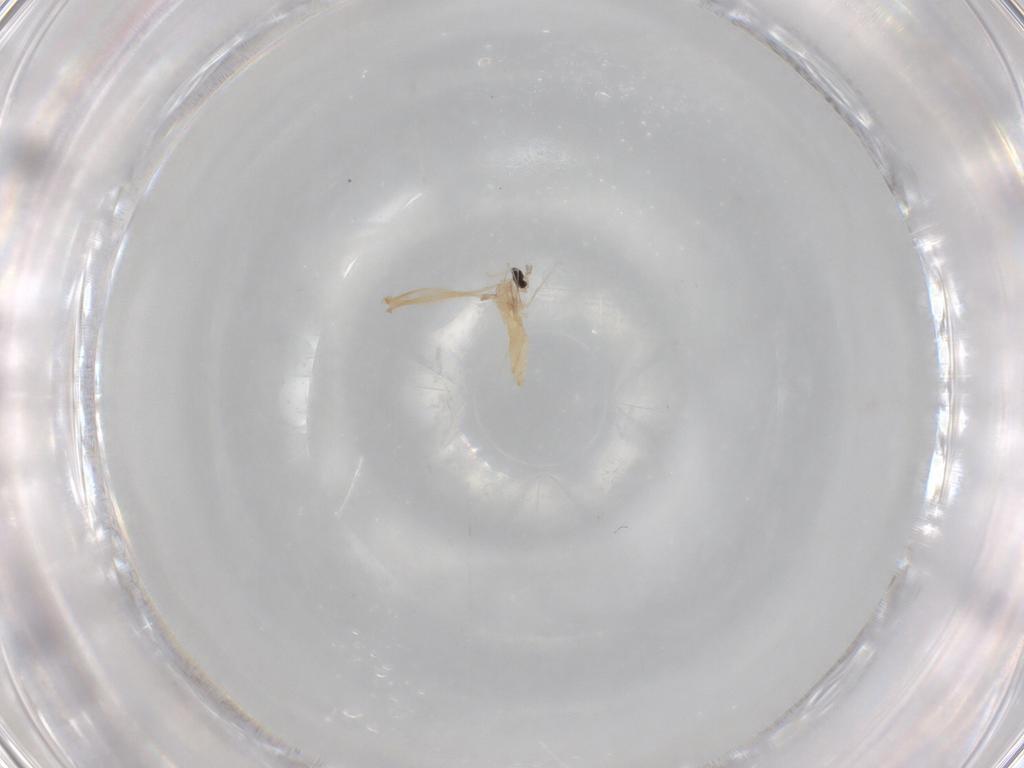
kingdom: Animalia
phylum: Arthropoda
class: Insecta
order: Diptera
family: Cecidomyiidae
